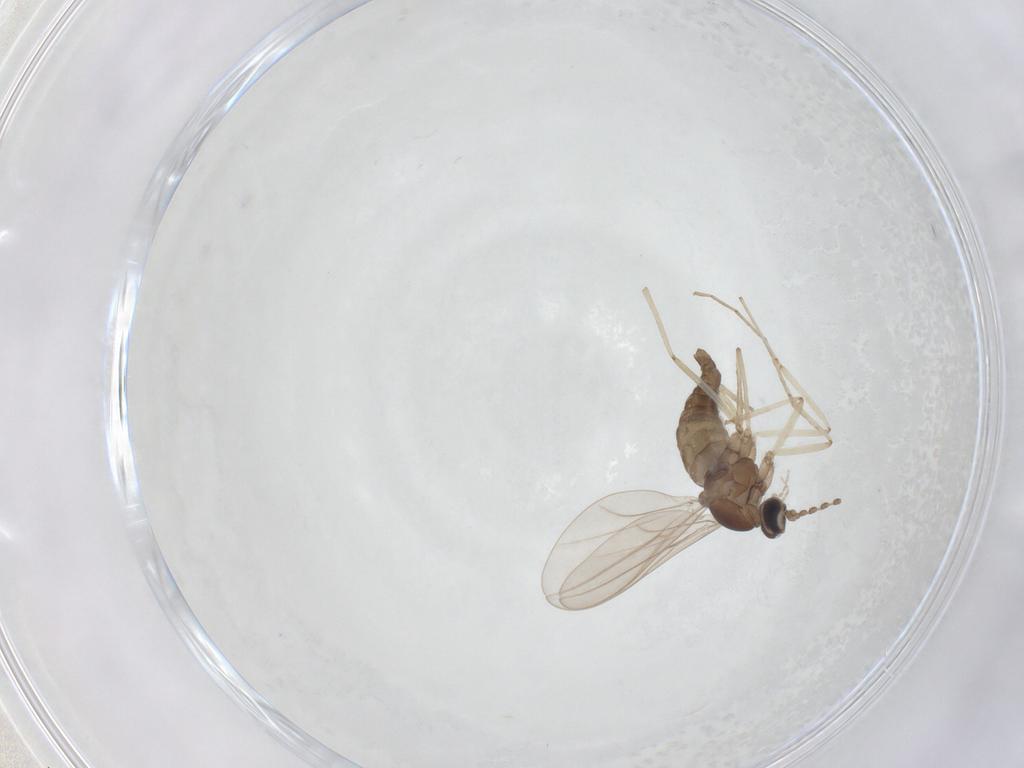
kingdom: Animalia
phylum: Arthropoda
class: Insecta
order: Diptera
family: Cecidomyiidae
